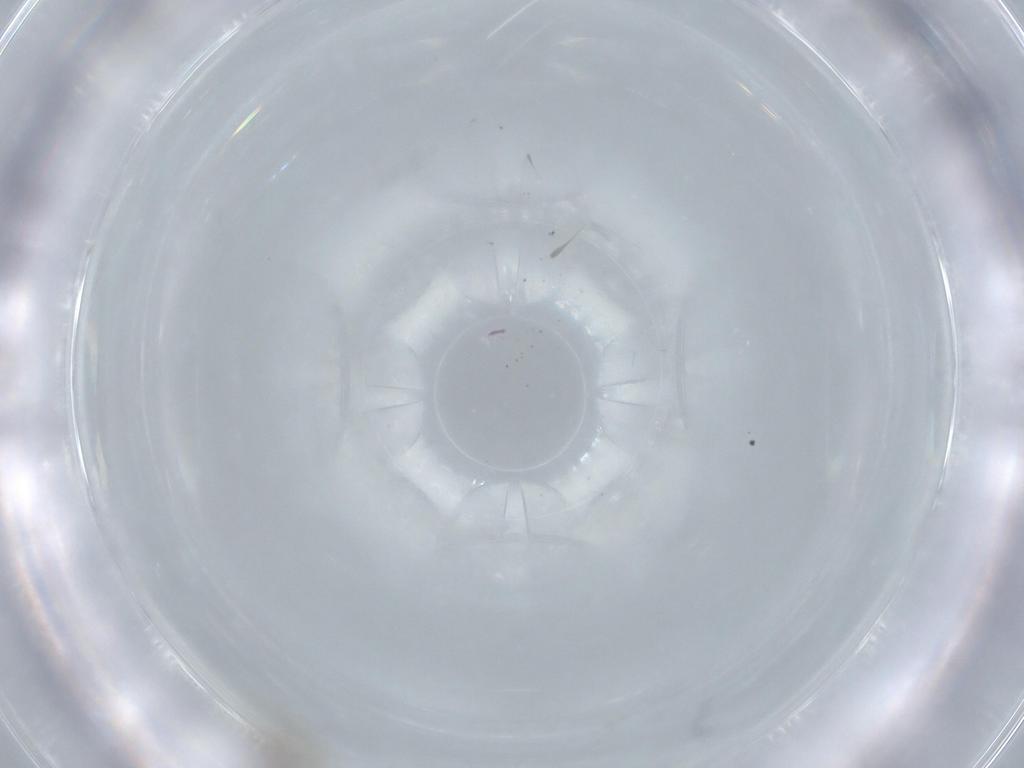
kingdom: Animalia
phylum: Arthropoda
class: Insecta
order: Diptera
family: Cecidomyiidae
